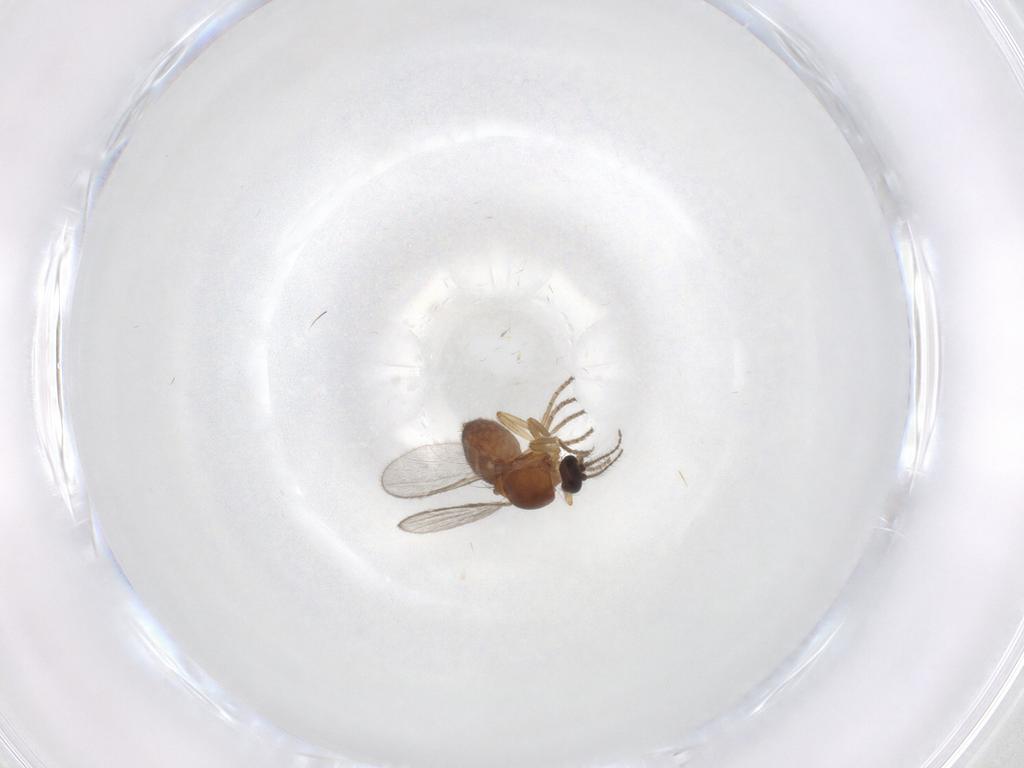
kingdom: Animalia
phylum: Arthropoda
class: Insecta
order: Diptera
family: Ceratopogonidae
